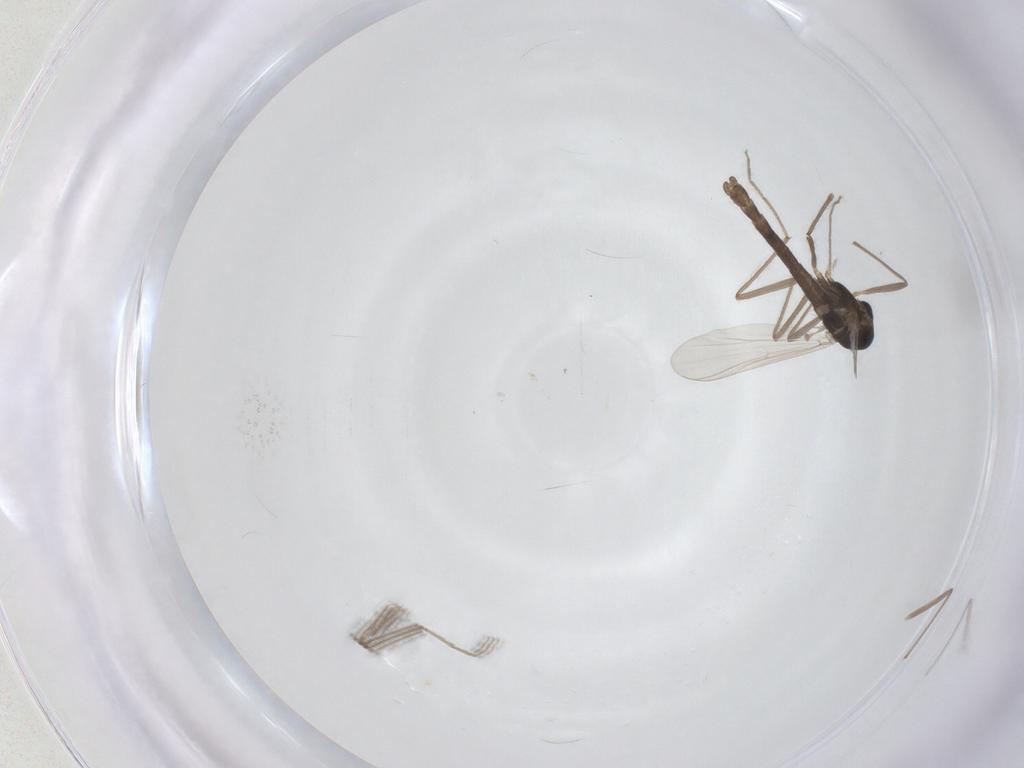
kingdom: Animalia
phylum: Arthropoda
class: Insecta
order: Diptera
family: Chironomidae
